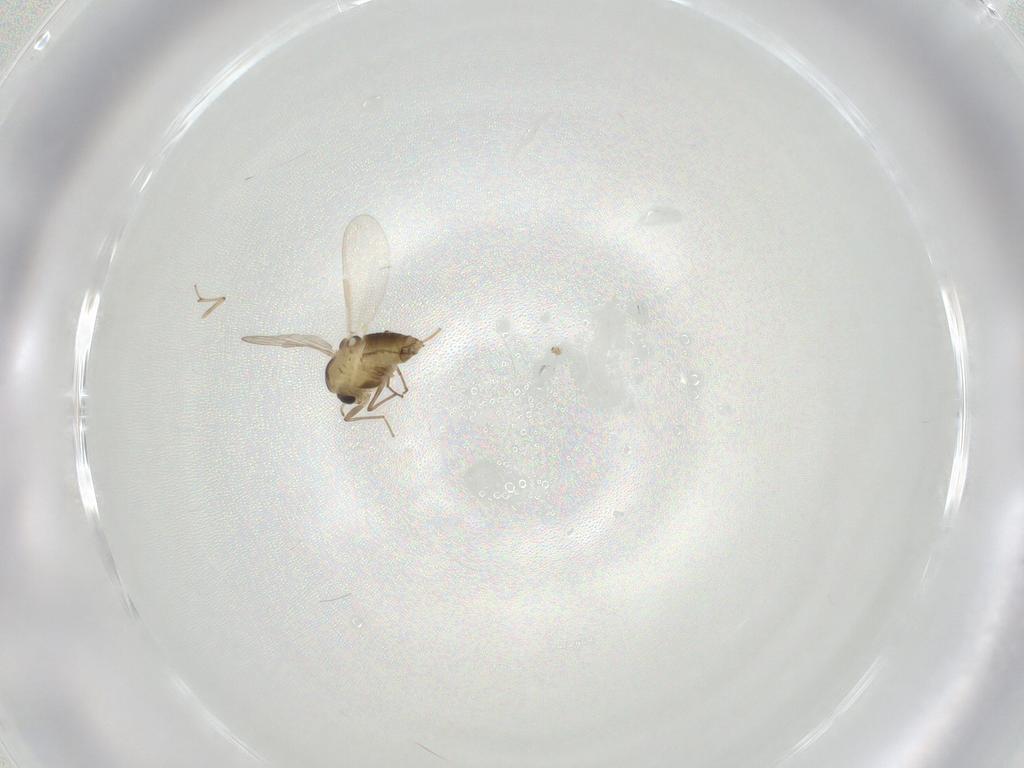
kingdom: Animalia
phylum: Arthropoda
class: Insecta
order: Diptera
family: Chironomidae
